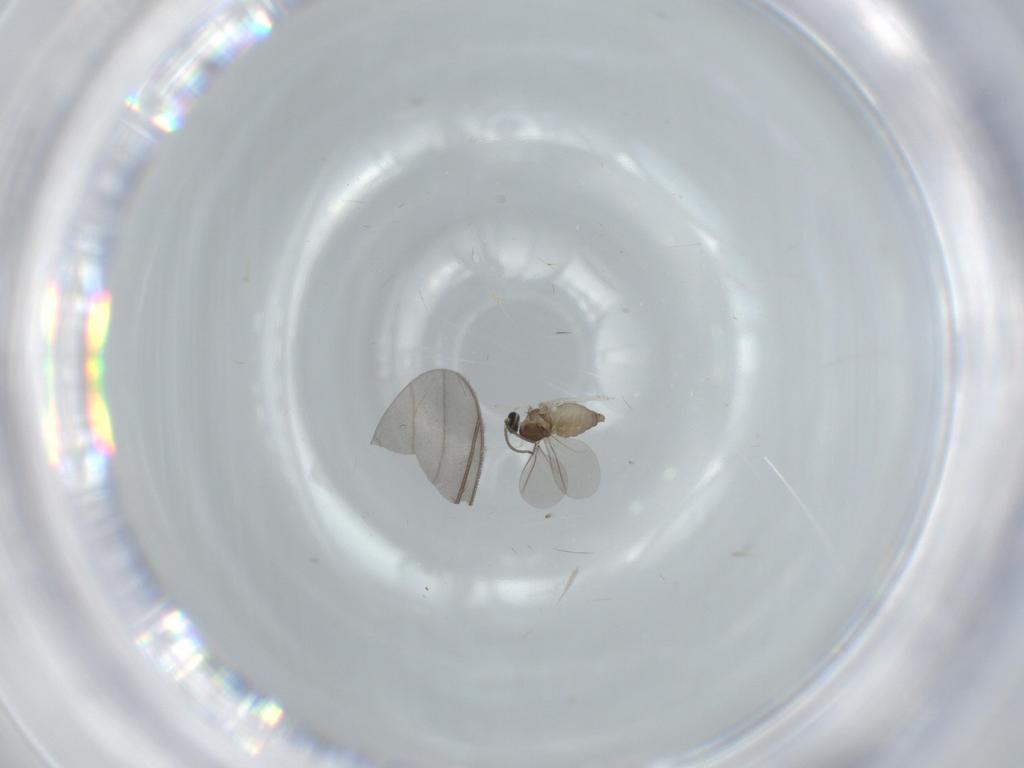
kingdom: Animalia
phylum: Arthropoda
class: Insecta
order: Diptera
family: Cecidomyiidae
